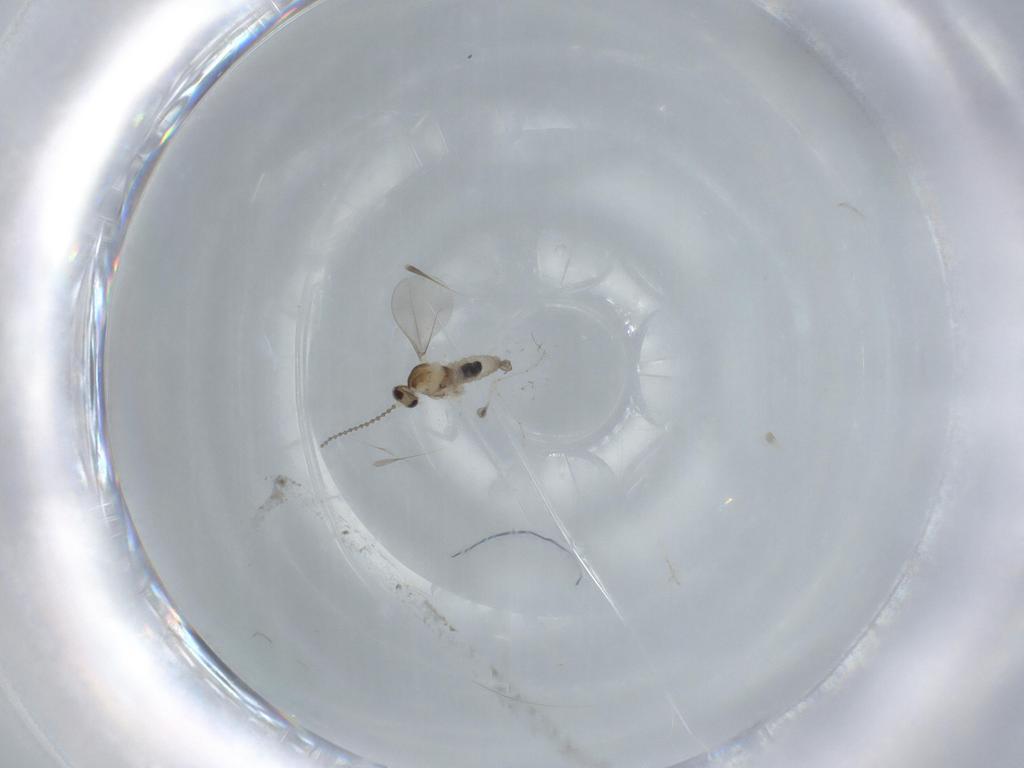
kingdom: Animalia
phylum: Arthropoda
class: Insecta
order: Diptera
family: Cecidomyiidae
